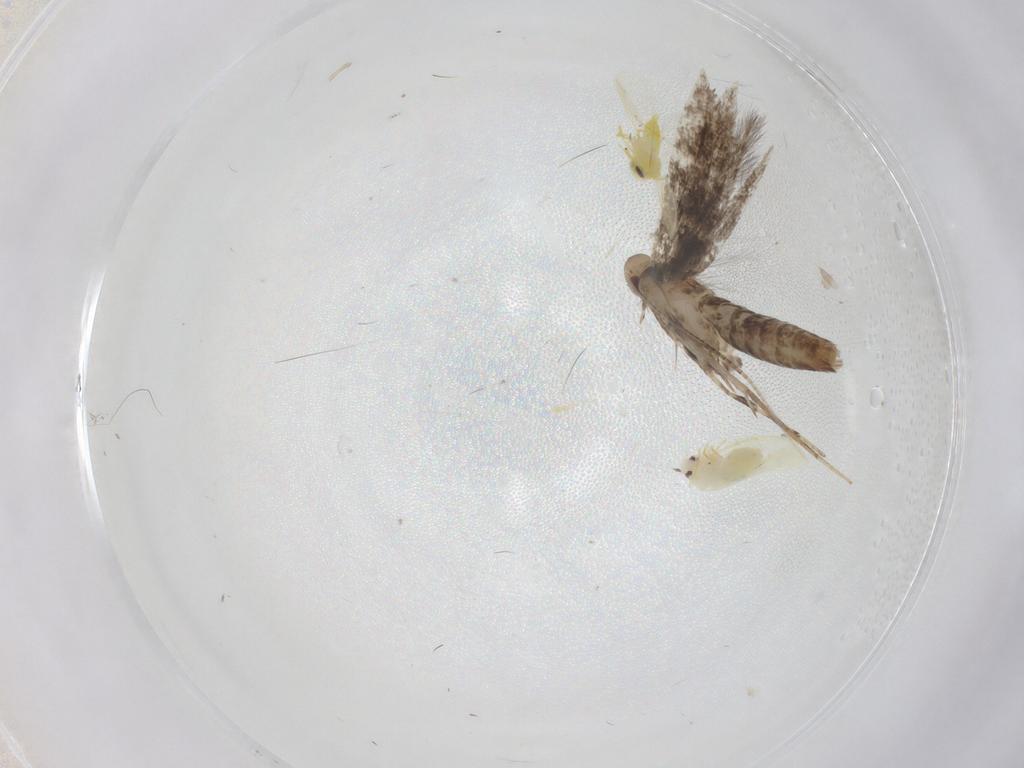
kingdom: Animalia
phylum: Arthropoda
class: Insecta
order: Lepidoptera
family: Gracillariidae
